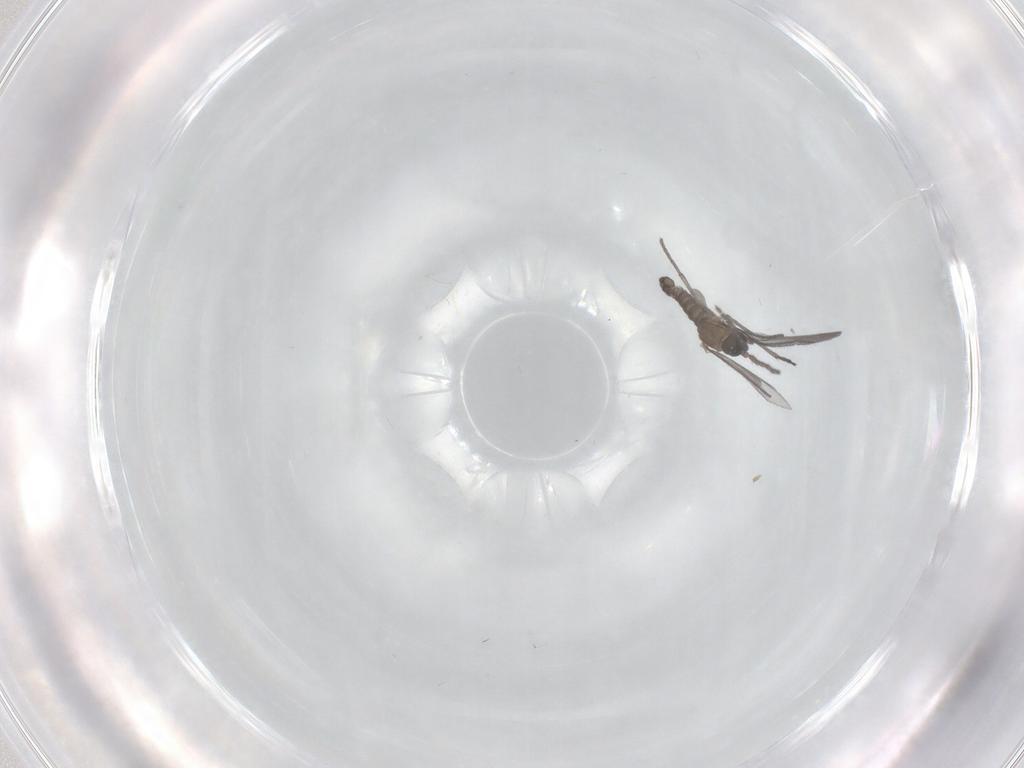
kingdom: Animalia
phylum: Arthropoda
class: Insecta
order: Diptera
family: Sciaridae
